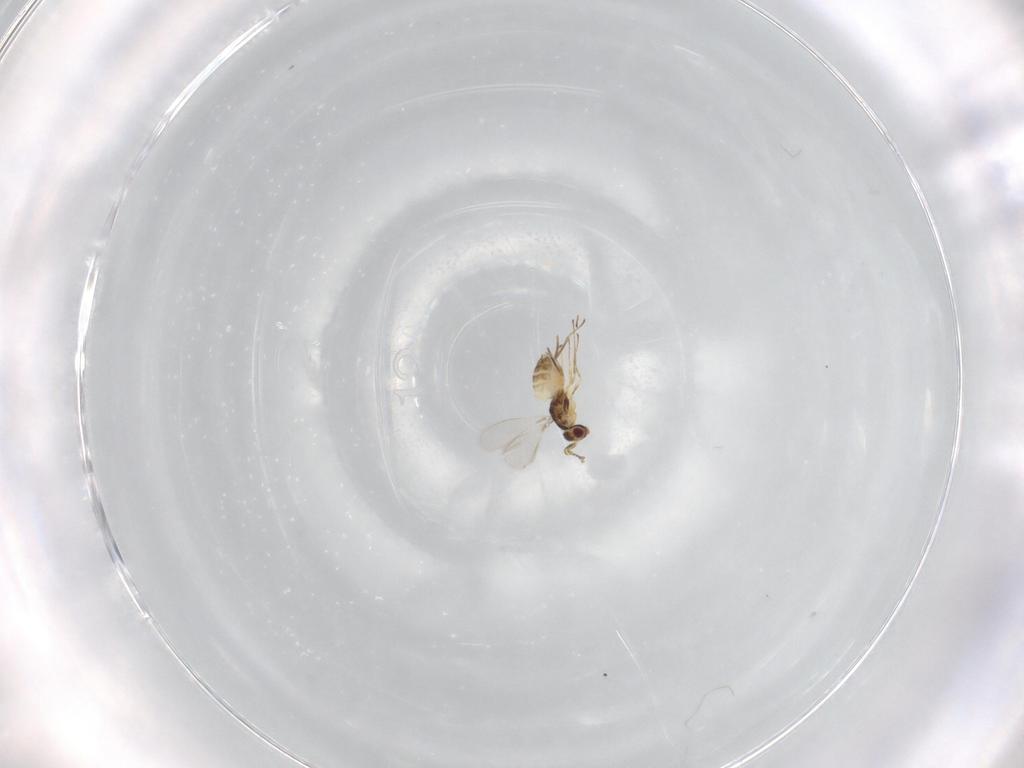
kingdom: Animalia
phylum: Arthropoda
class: Insecta
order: Hymenoptera
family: Mymaridae
